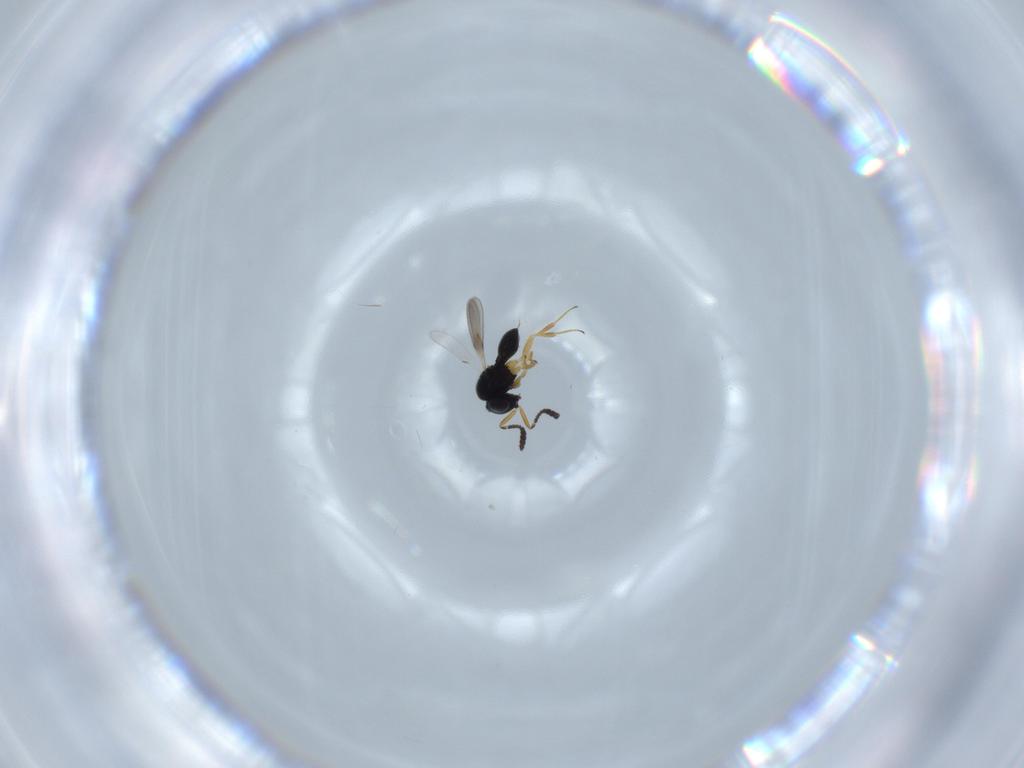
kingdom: Animalia
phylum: Arthropoda
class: Insecta
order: Hymenoptera
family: Scelionidae
